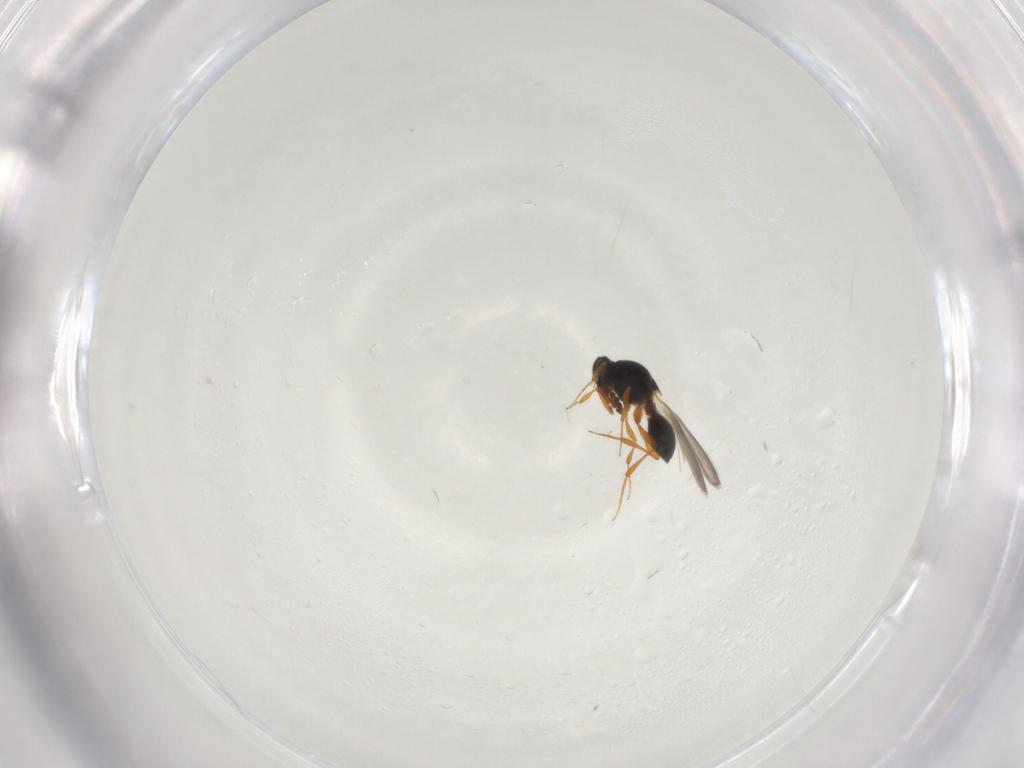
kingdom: Animalia
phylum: Arthropoda
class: Insecta
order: Hymenoptera
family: Platygastridae
